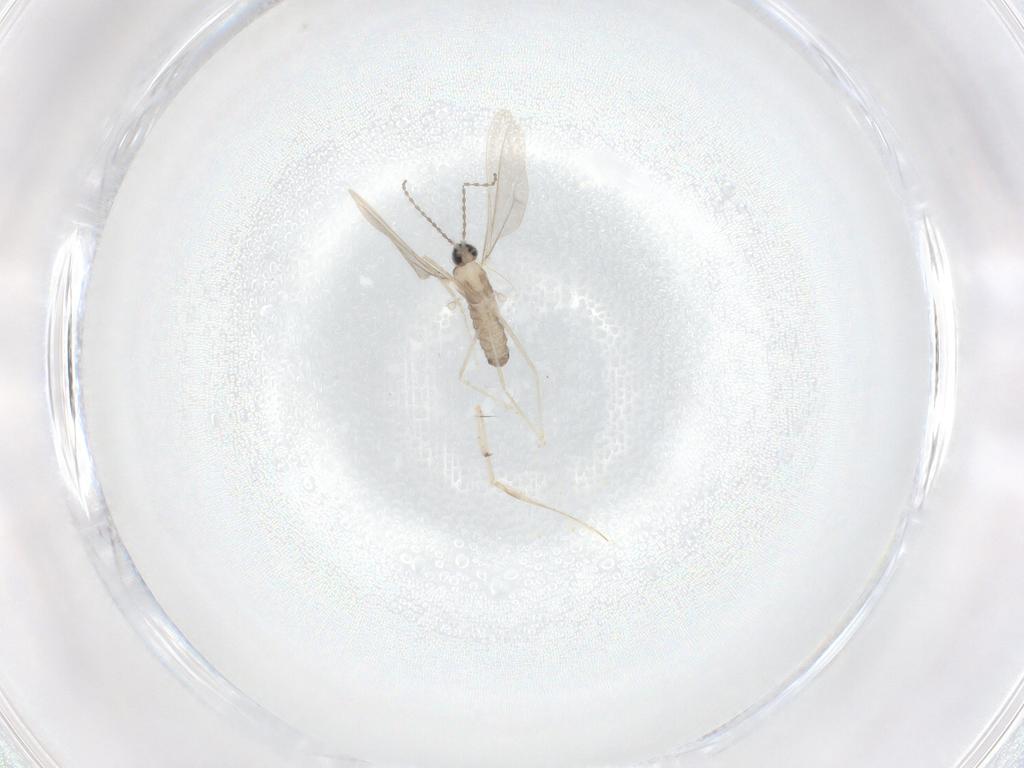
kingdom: Animalia
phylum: Arthropoda
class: Insecta
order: Diptera
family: Cecidomyiidae
